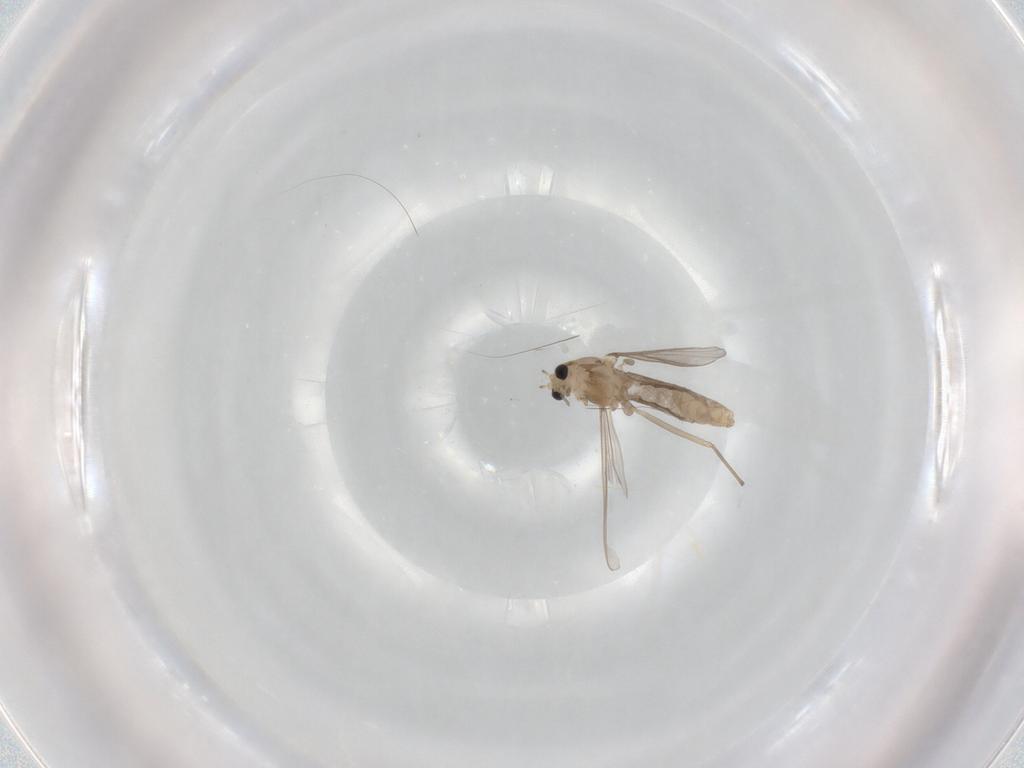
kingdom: Animalia
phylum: Arthropoda
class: Insecta
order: Diptera
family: Chironomidae
